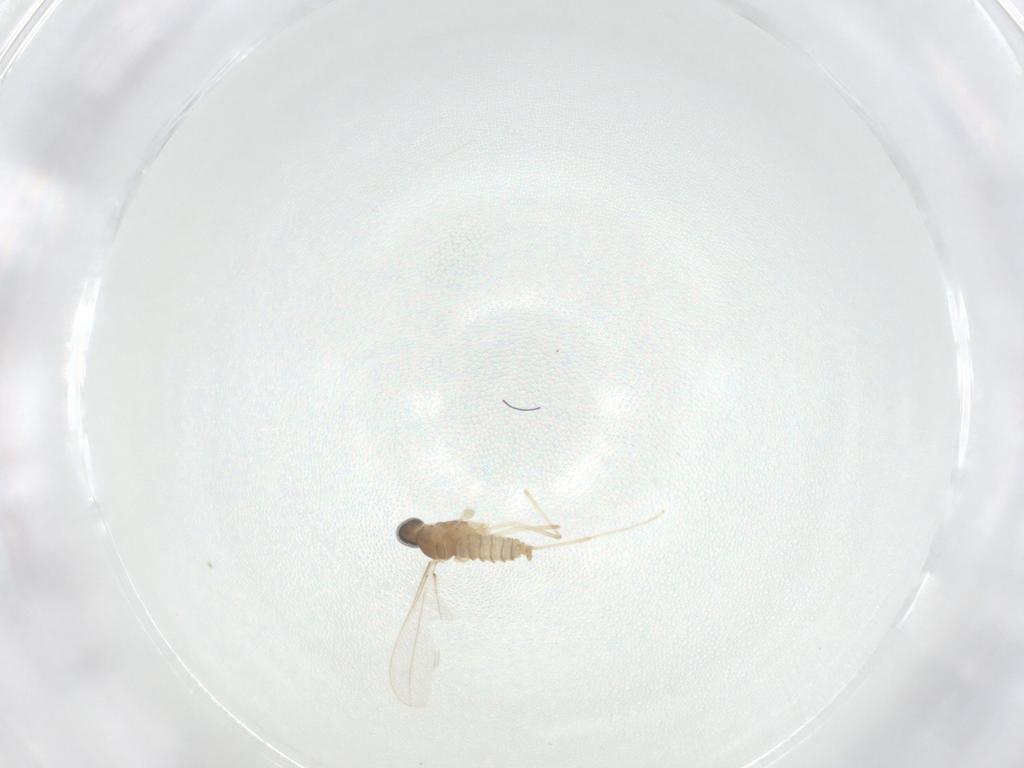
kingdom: Animalia
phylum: Arthropoda
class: Insecta
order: Diptera
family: Cecidomyiidae
